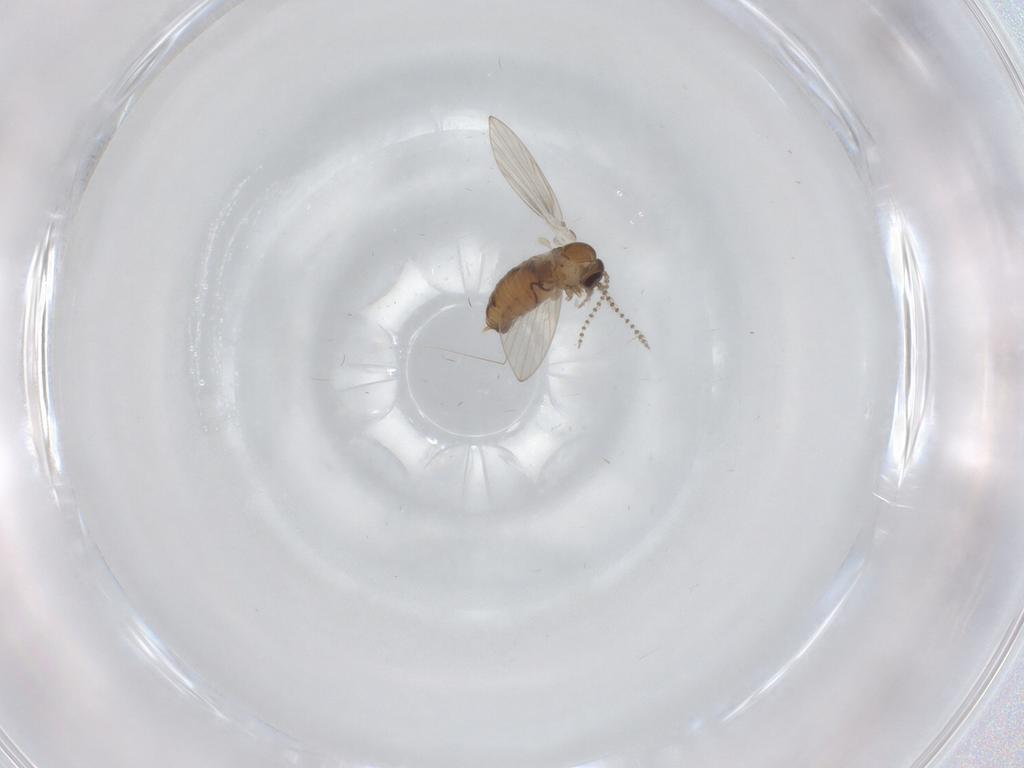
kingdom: Animalia
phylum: Arthropoda
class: Insecta
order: Diptera
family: Psychodidae
